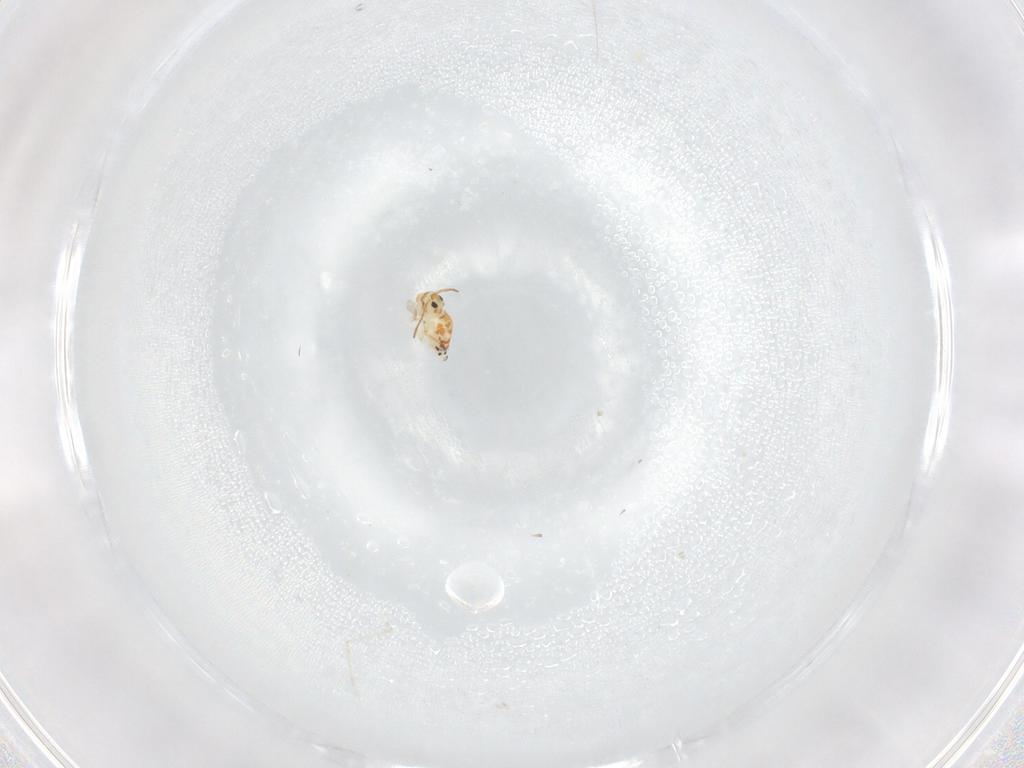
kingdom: Animalia
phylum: Arthropoda
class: Collembola
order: Symphypleona
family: Bourletiellidae
